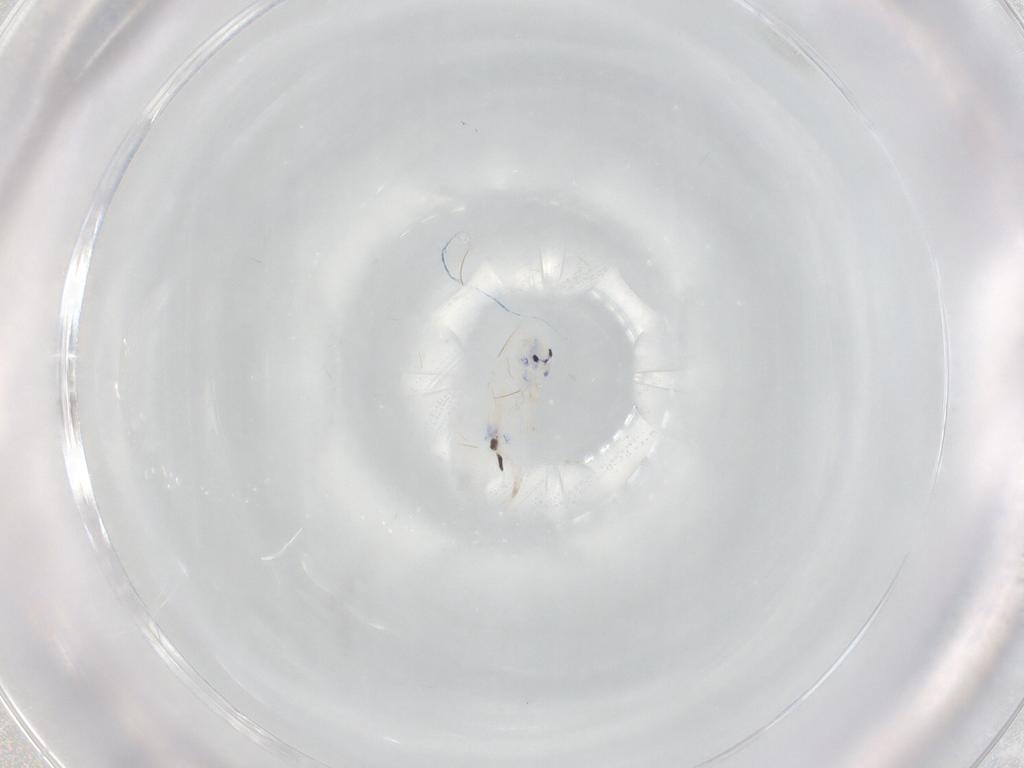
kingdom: Animalia
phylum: Arthropoda
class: Collembola
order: Entomobryomorpha
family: Entomobryidae
